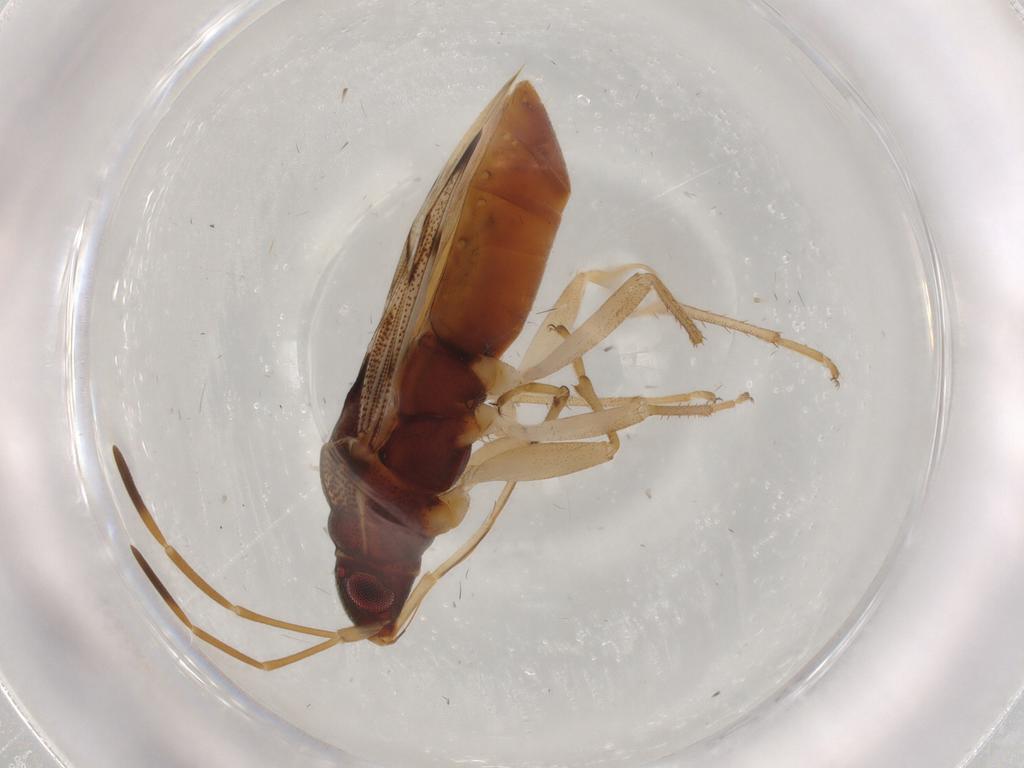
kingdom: Animalia
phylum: Arthropoda
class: Insecta
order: Hemiptera
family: Rhyparochromidae
